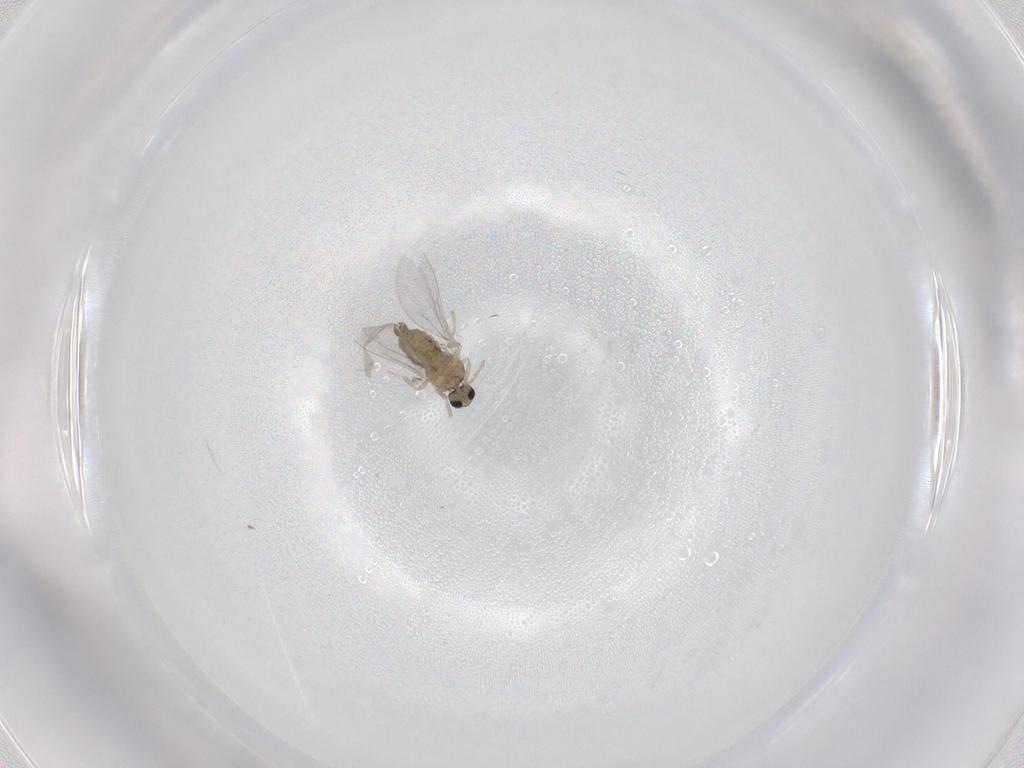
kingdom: Animalia
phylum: Arthropoda
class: Insecta
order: Diptera
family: Cecidomyiidae
